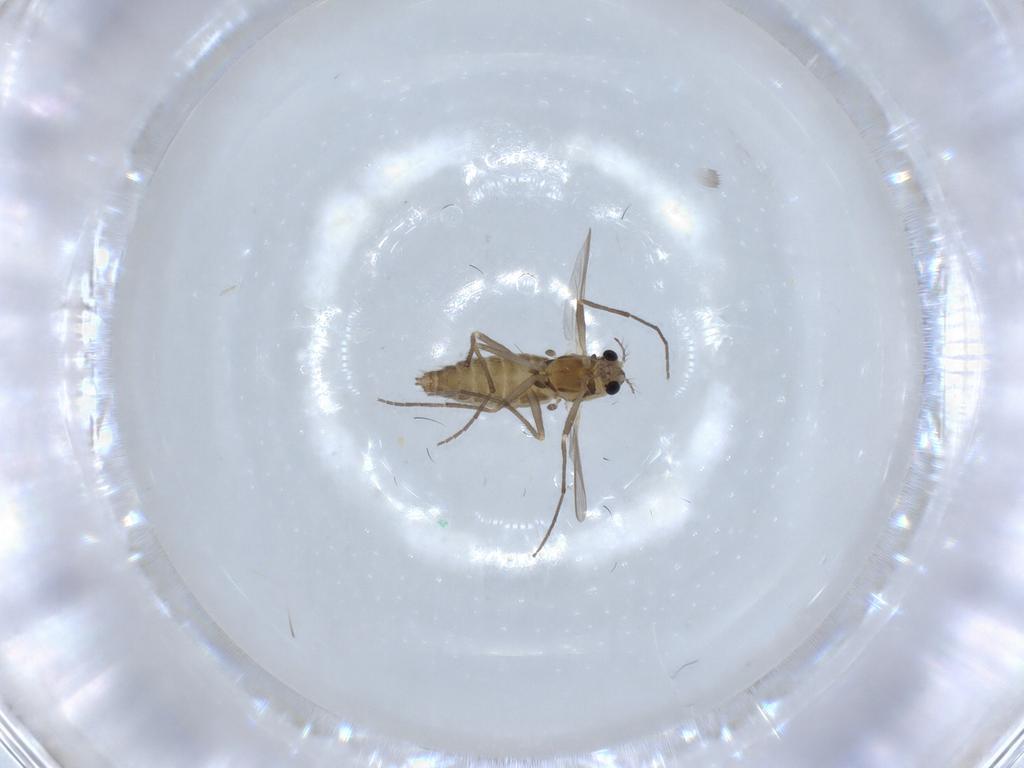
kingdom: Animalia
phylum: Arthropoda
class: Insecta
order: Diptera
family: Chironomidae
